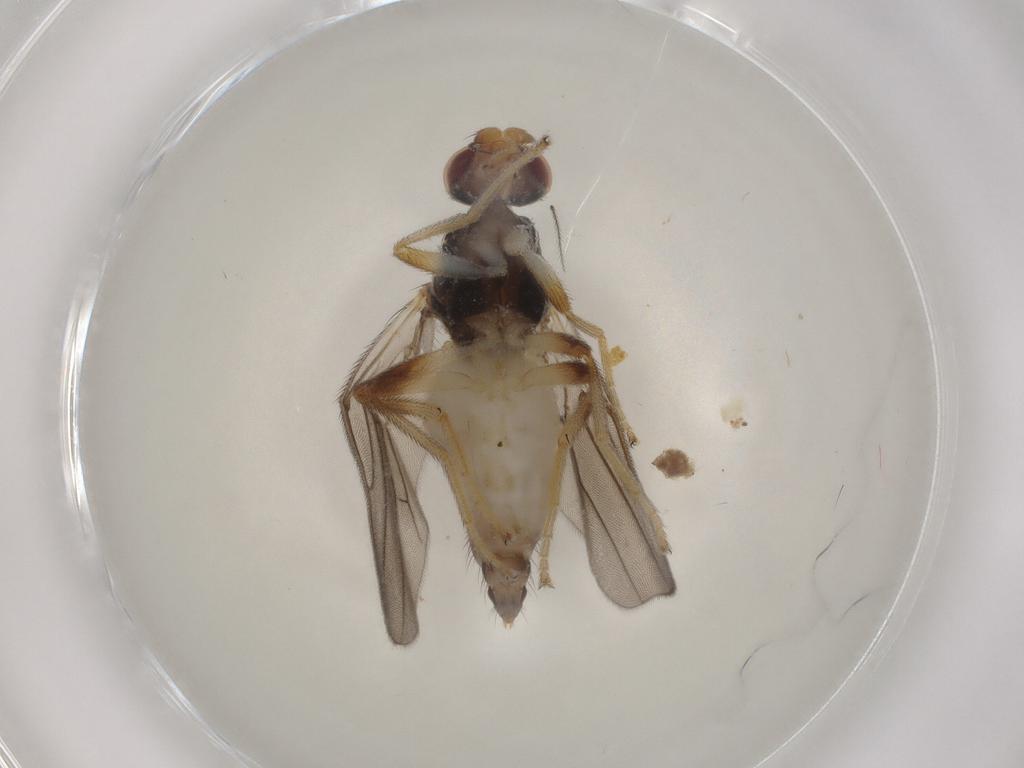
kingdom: Animalia
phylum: Arthropoda
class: Insecta
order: Diptera
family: Chloropidae
